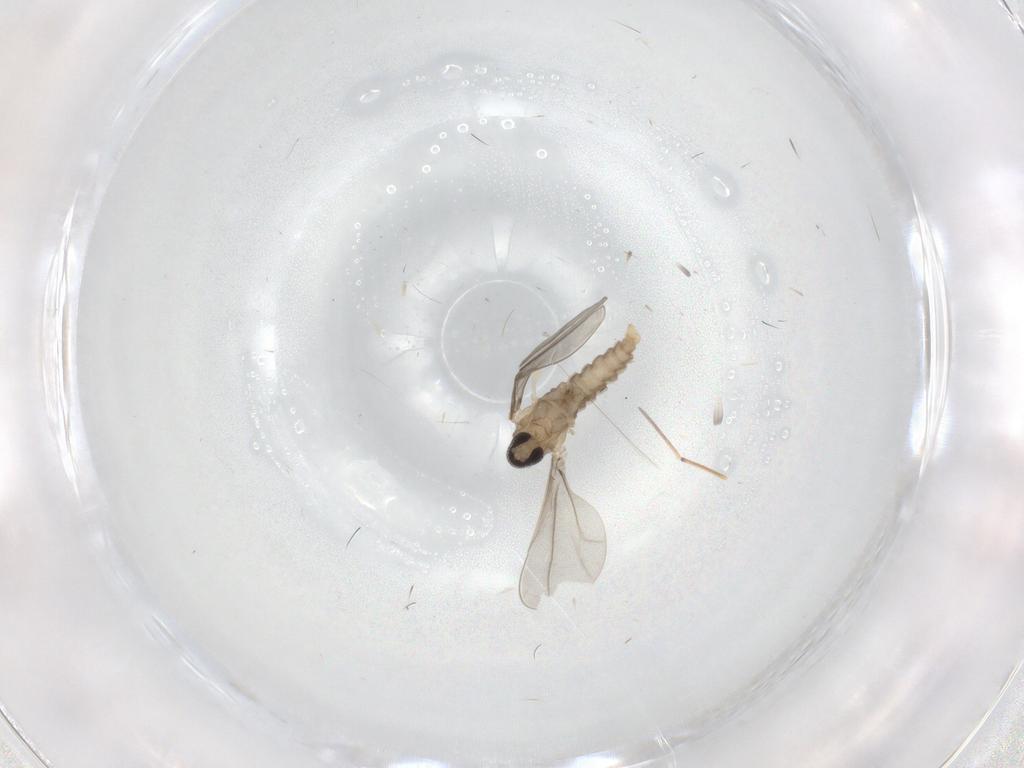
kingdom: Animalia
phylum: Arthropoda
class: Insecta
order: Diptera
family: Cecidomyiidae
